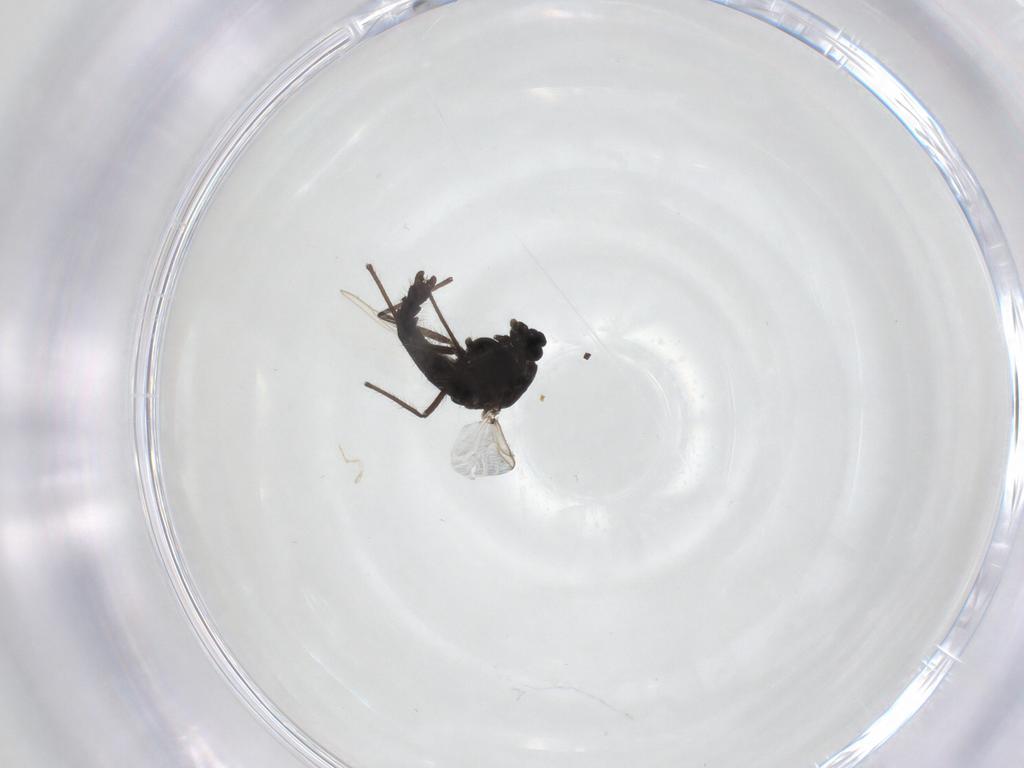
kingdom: Animalia
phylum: Arthropoda
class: Insecta
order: Diptera
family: Chironomidae
